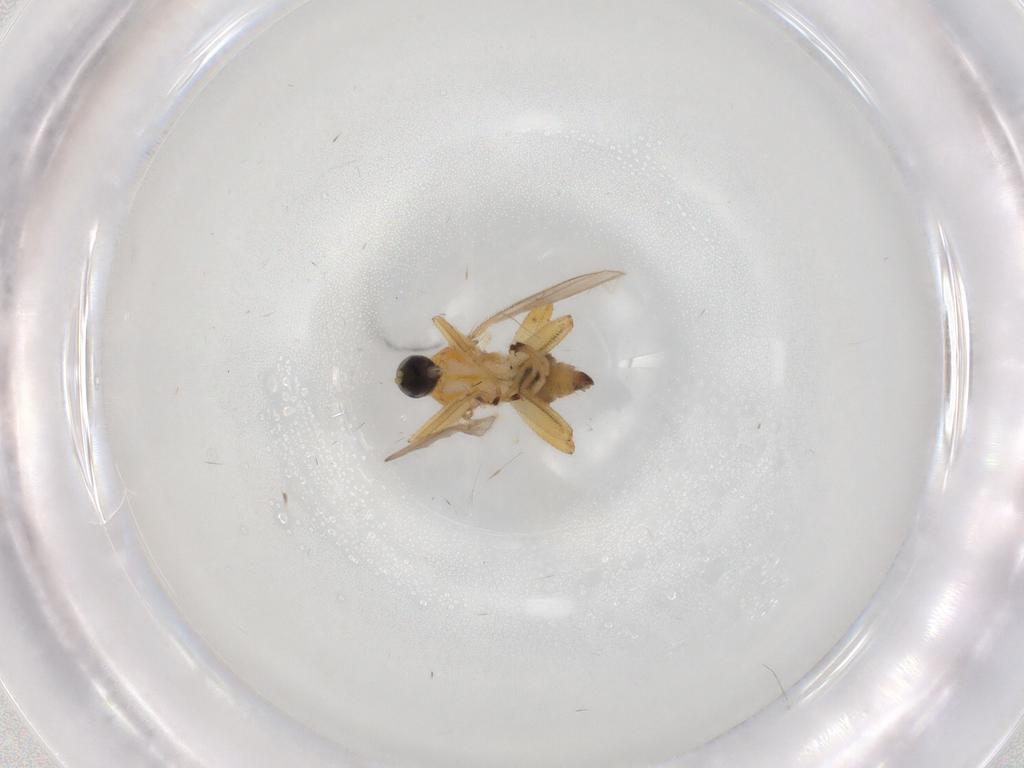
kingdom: Animalia
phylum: Arthropoda
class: Insecta
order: Diptera
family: Hybotidae
